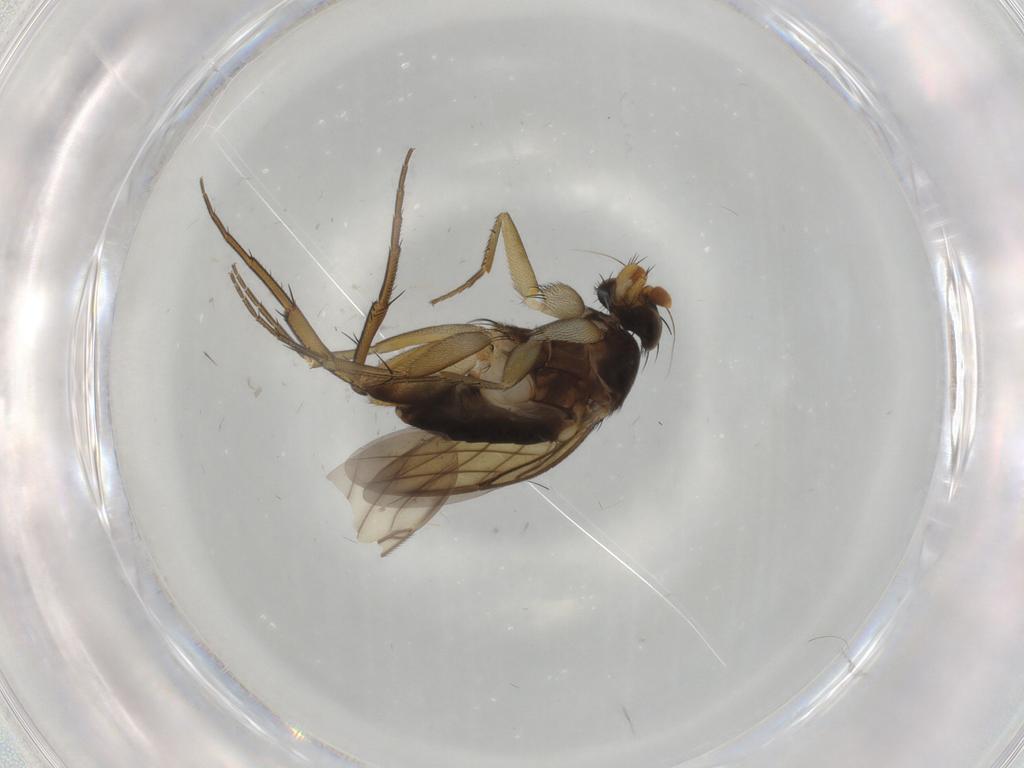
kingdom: Animalia
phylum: Arthropoda
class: Insecta
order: Diptera
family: Phoridae
